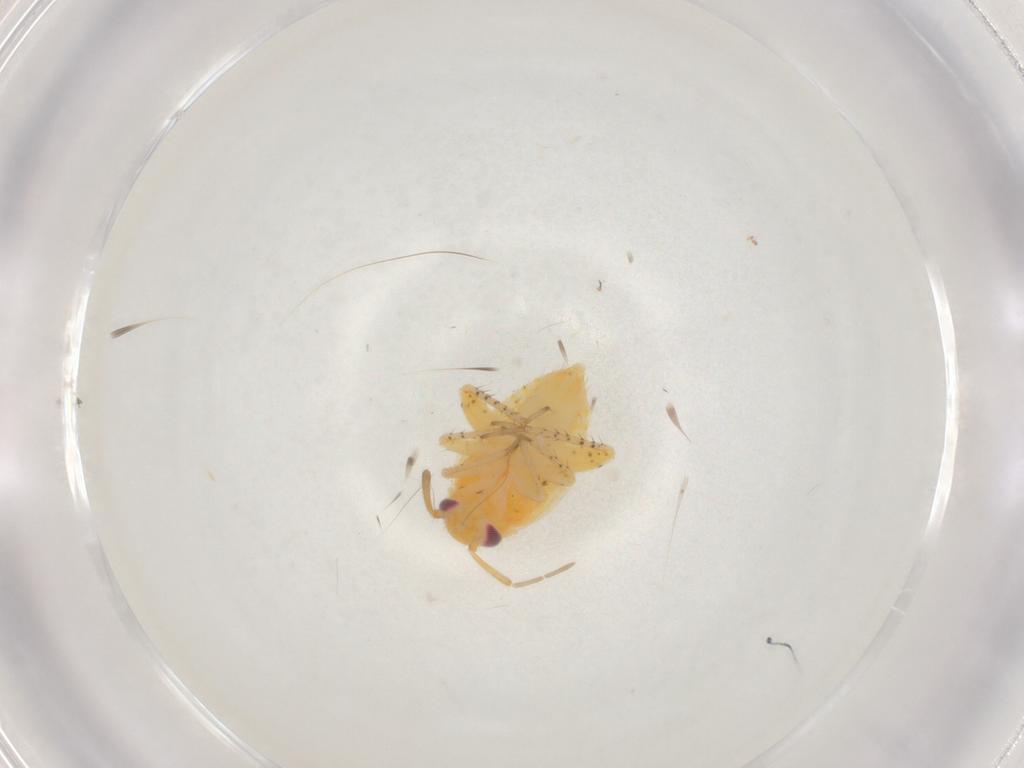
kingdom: Animalia
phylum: Arthropoda
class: Insecta
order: Hemiptera
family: Miridae
